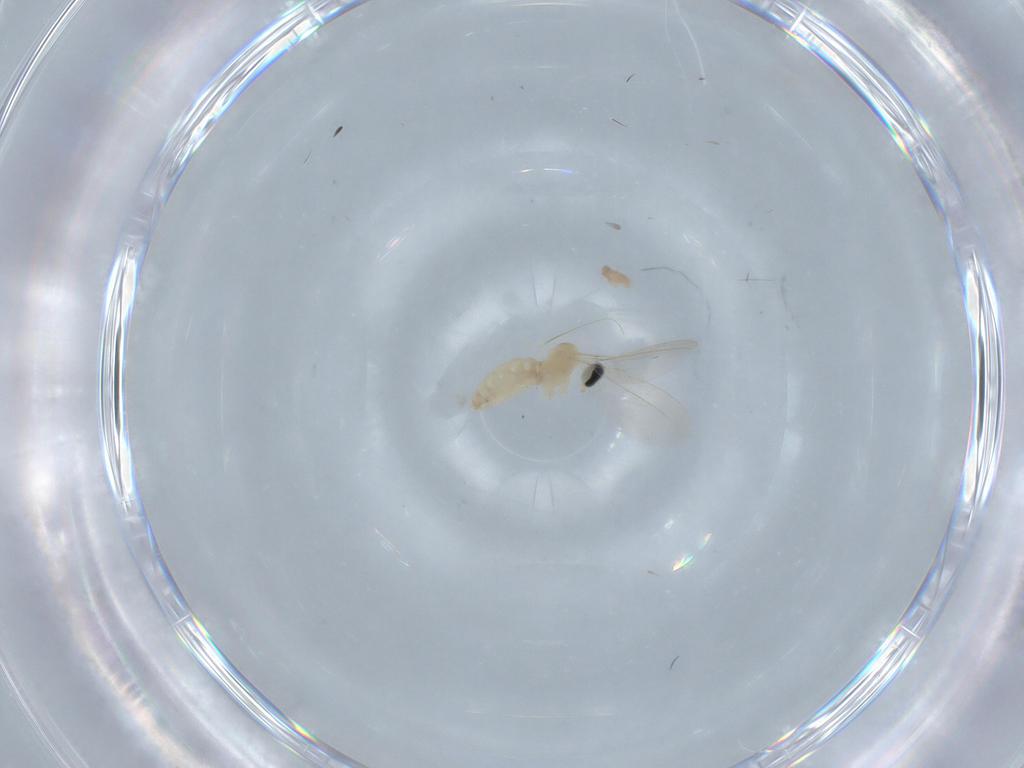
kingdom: Animalia
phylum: Arthropoda
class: Insecta
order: Diptera
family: Cecidomyiidae
